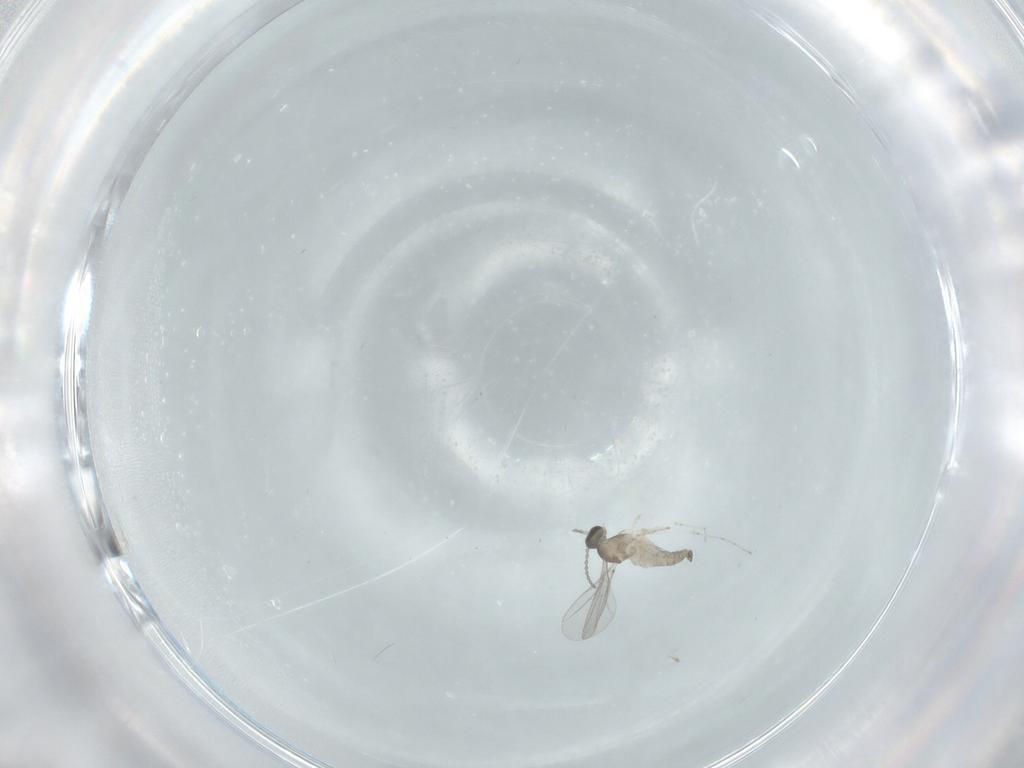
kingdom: Animalia
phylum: Arthropoda
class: Insecta
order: Diptera
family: Cecidomyiidae
